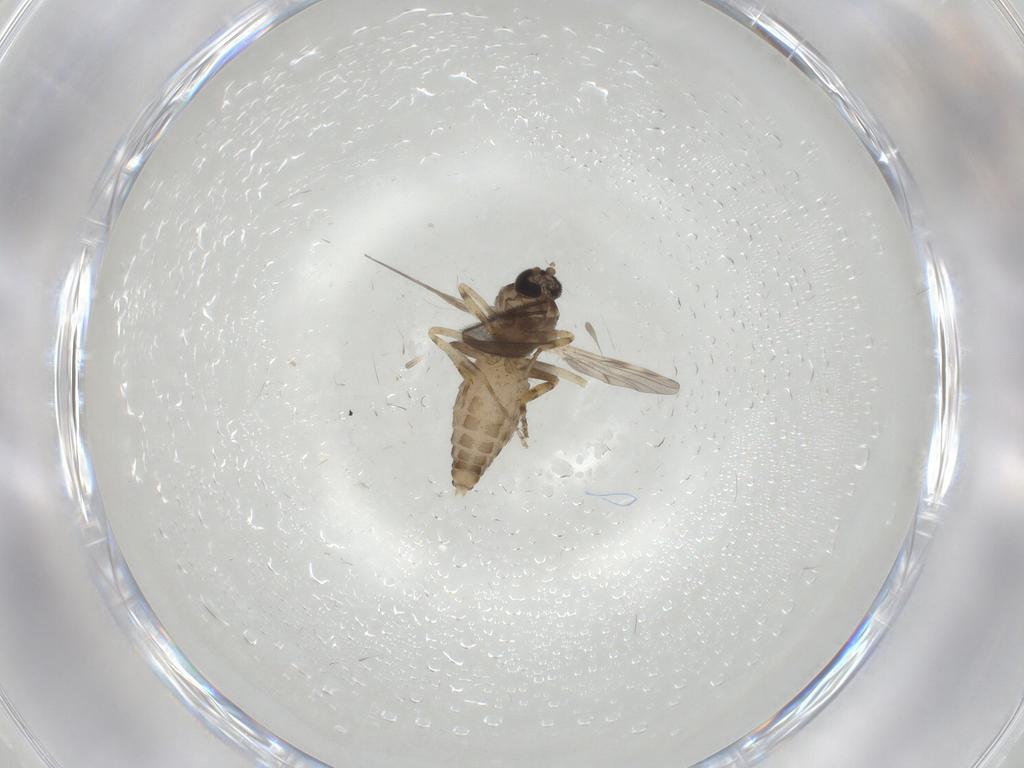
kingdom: Animalia
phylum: Arthropoda
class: Insecta
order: Diptera
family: Ceratopogonidae
